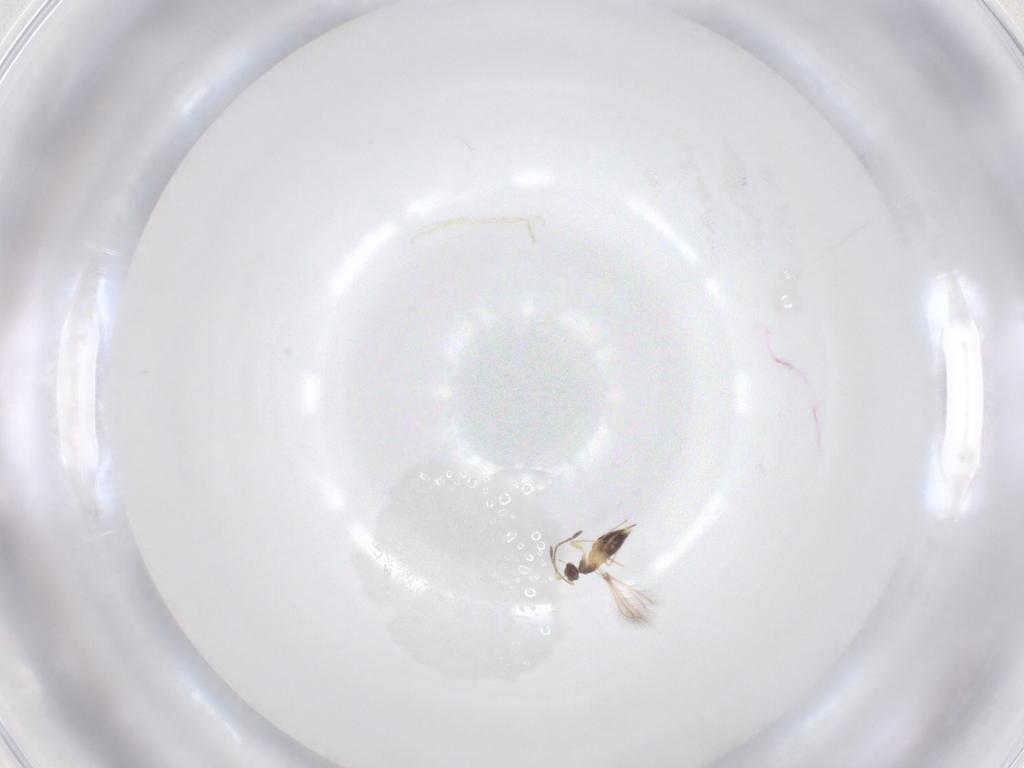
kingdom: Animalia
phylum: Arthropoda
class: Insecta
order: Hymenoptera
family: Mymaridae
